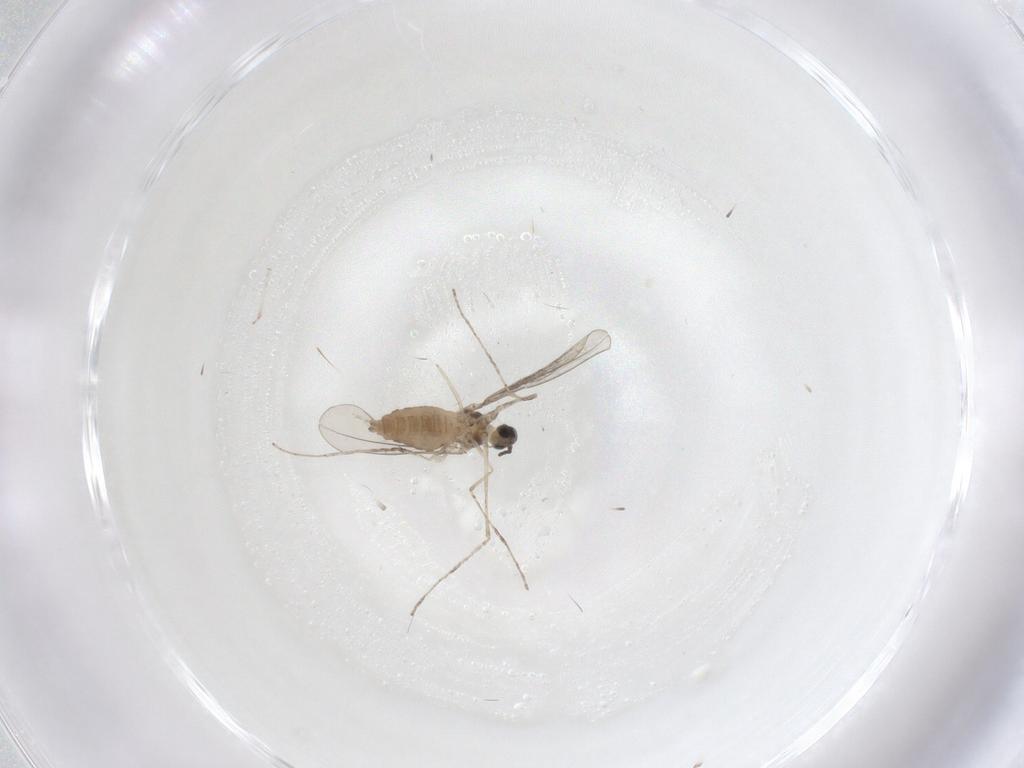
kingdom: Animalia
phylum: Arthropoda
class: Insecta
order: Diptera
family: Cecidomyiidae
